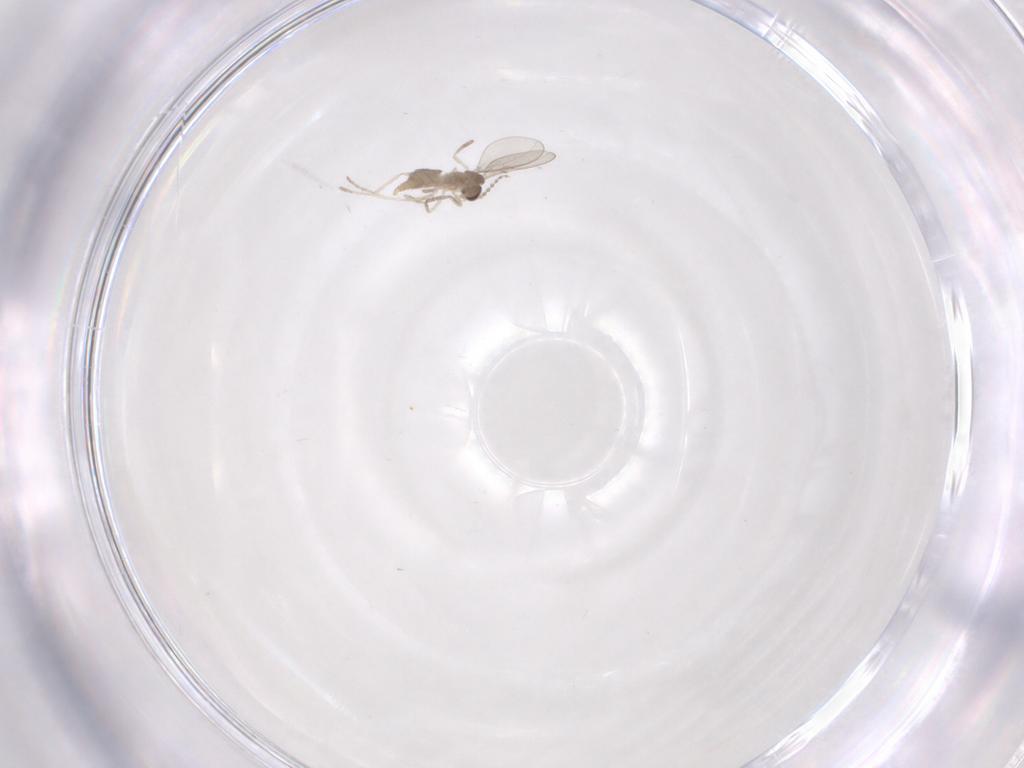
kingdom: Animalia
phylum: Arthropoda
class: Insecta
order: Diptera
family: Cecidomyiidae
